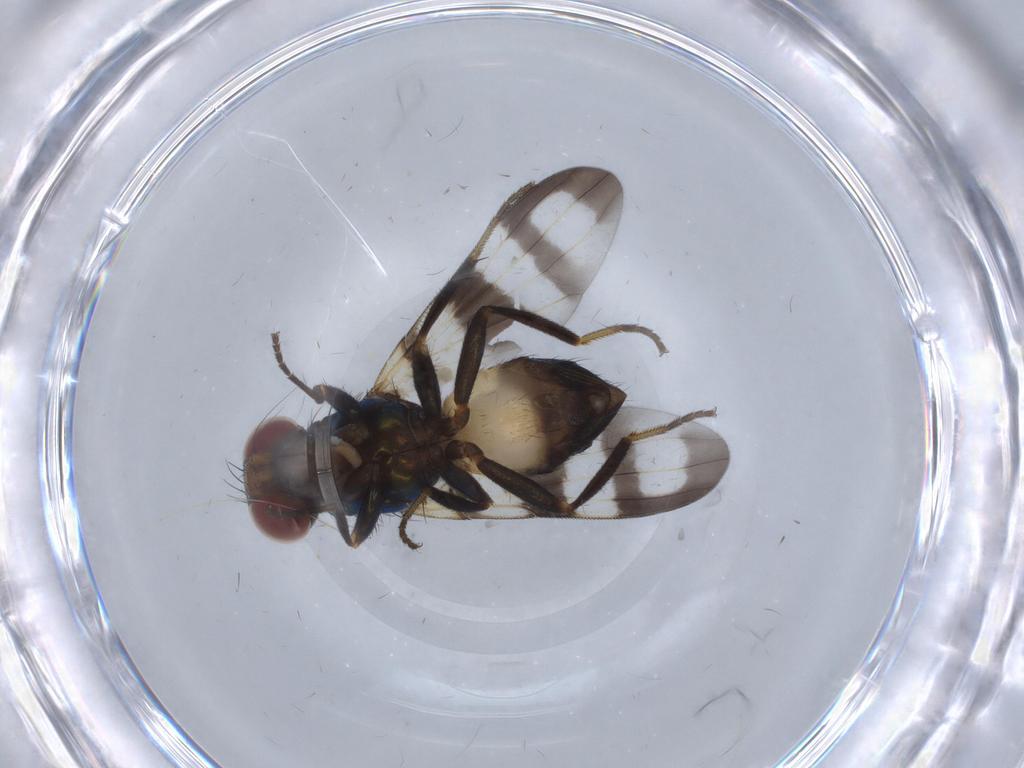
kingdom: Animalia
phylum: Arthropoda
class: Insecta
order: Diptera
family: Ulidiidae
